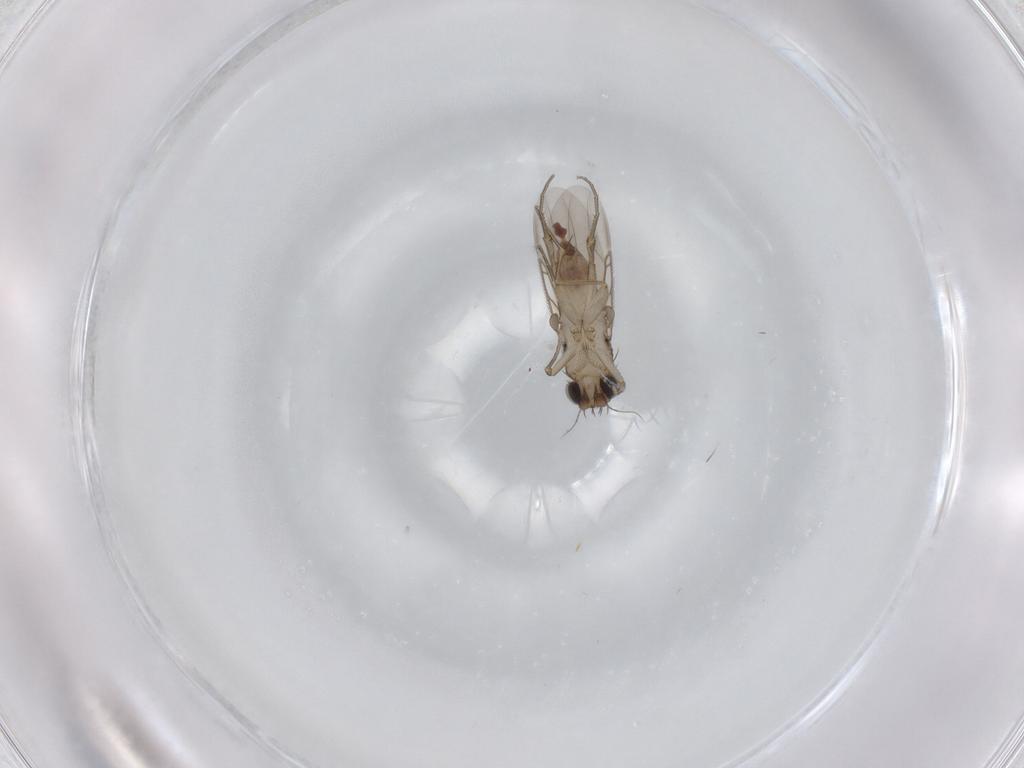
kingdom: Animalia
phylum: Arthropoda
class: Insecta
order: Diptera
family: Phoridae
